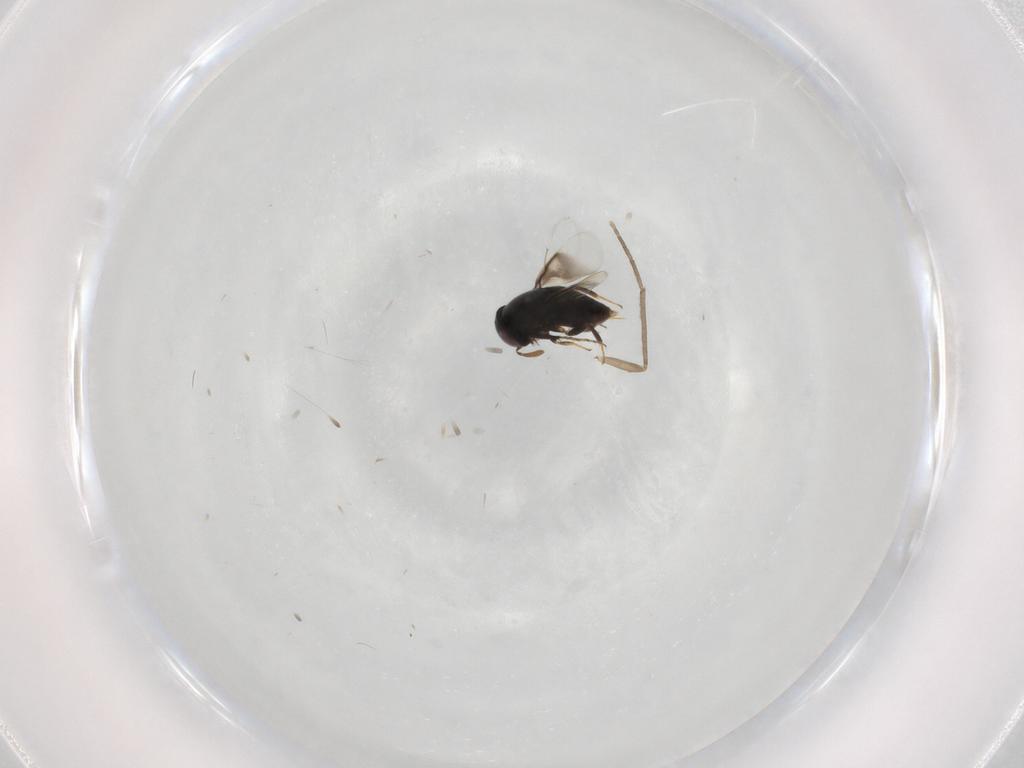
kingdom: Animalia
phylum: Arthropoda
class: Insecta
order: Hymenoptera
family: Signiphoridae
